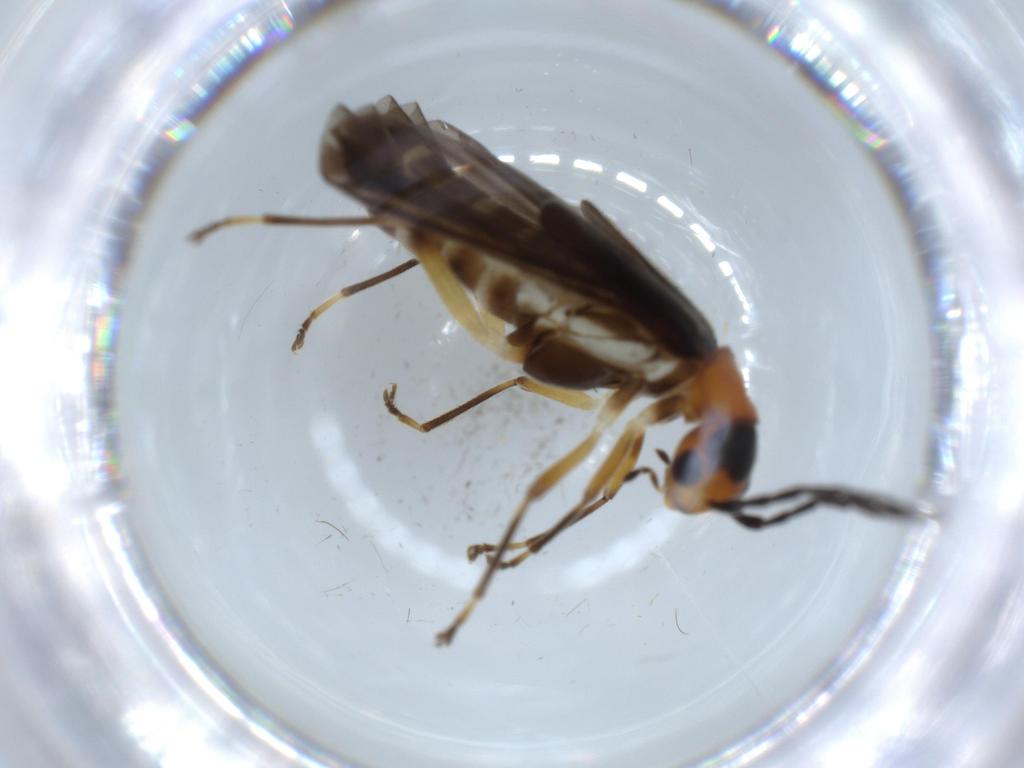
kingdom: Animalia
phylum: Arthropoda
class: Insecta
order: Coleoptera
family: Cantharidae
